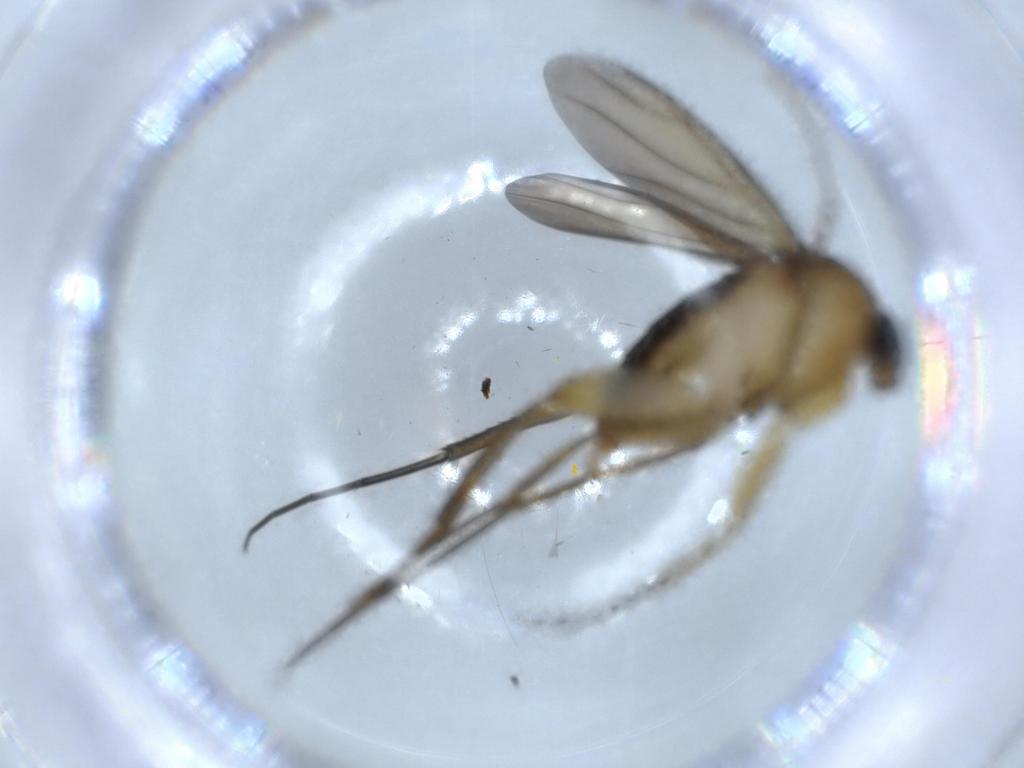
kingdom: Animalia
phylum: Arthropoda
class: Insecta
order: Diptera
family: Phoridae
